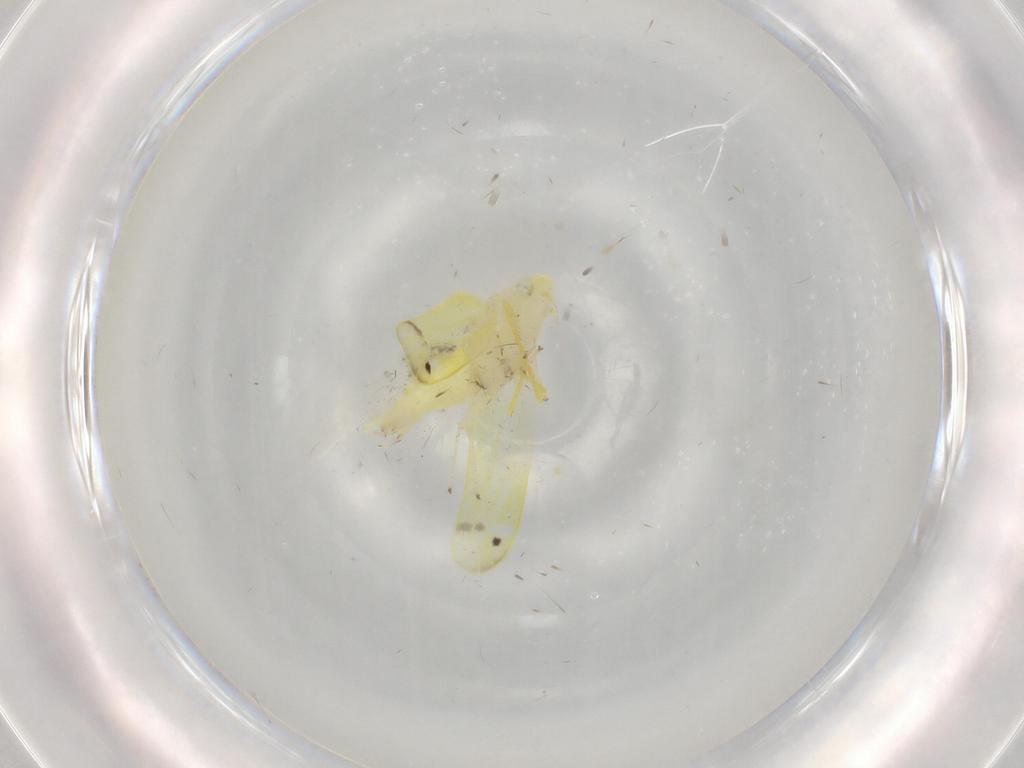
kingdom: Animalia
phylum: Arthropoda
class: Insecta
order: Hemiptera
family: Cicadellidae
